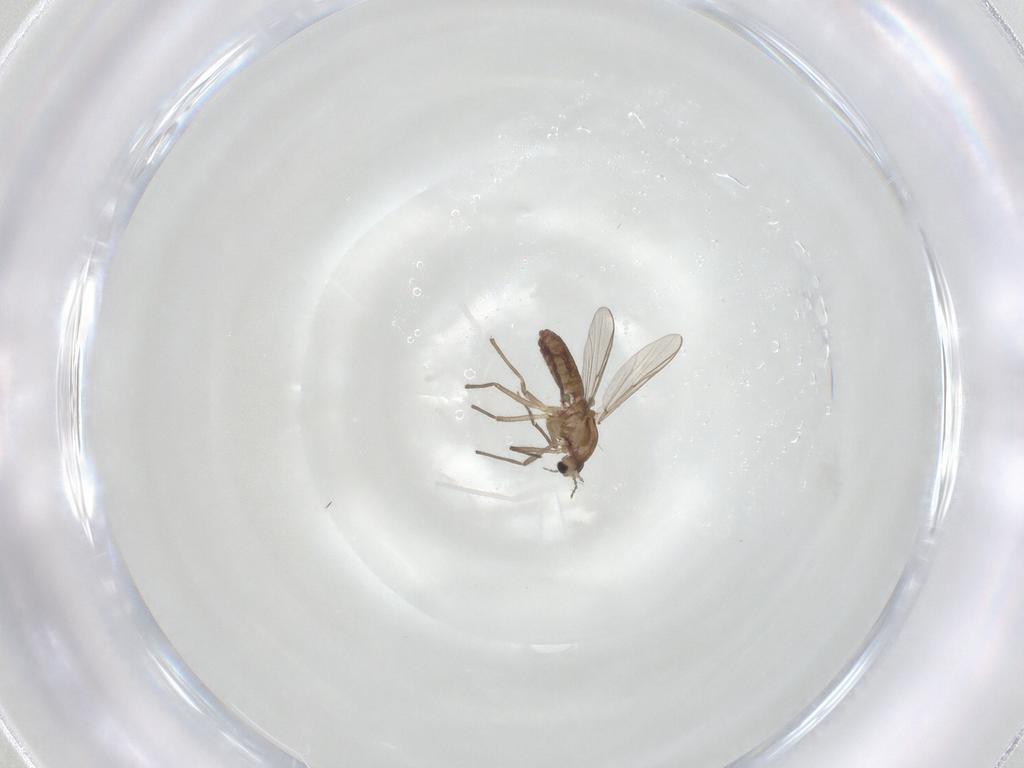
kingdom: Animalia
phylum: Arthropoda
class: Insecta
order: Diptera
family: Chironomidae
